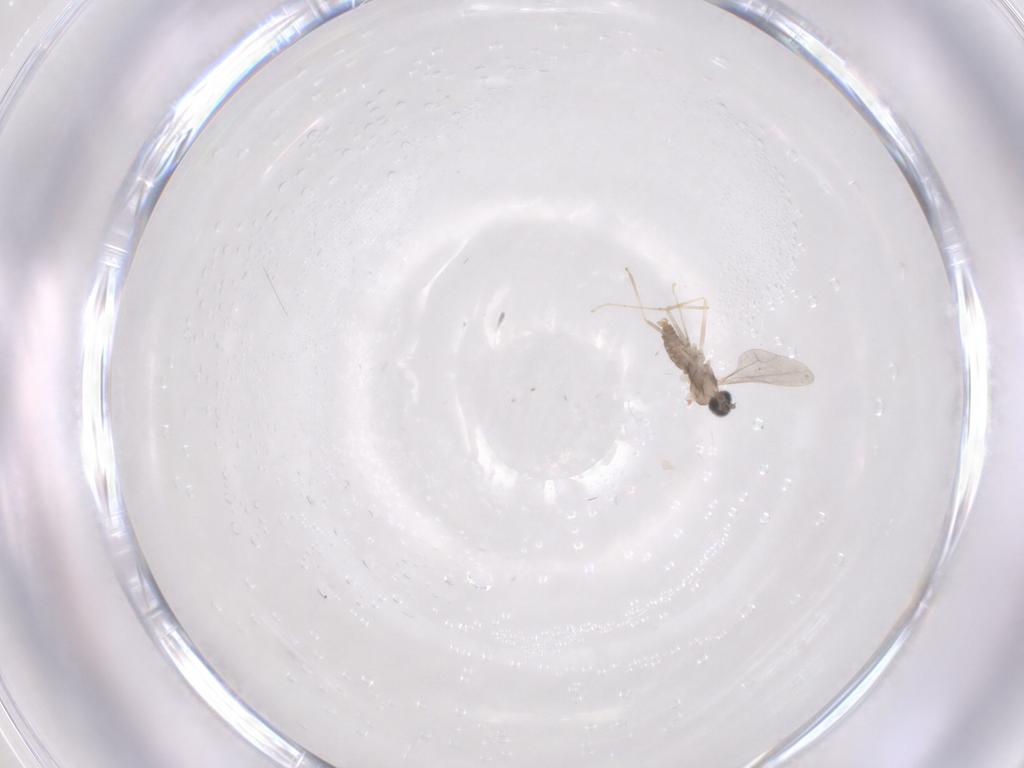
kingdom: Animalia
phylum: Arthropoda
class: Insecta
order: Diptera
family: Cecidomyiidae
